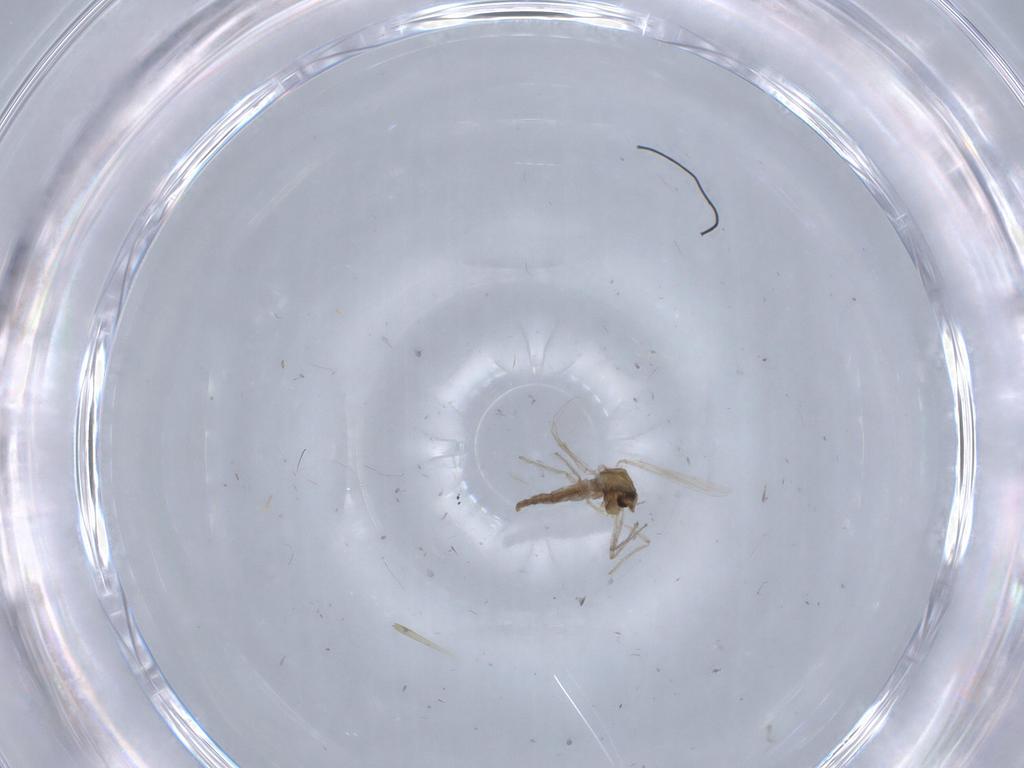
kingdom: Animalia
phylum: Arthropoda
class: Insecta
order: Diptera
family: Chironomidae
